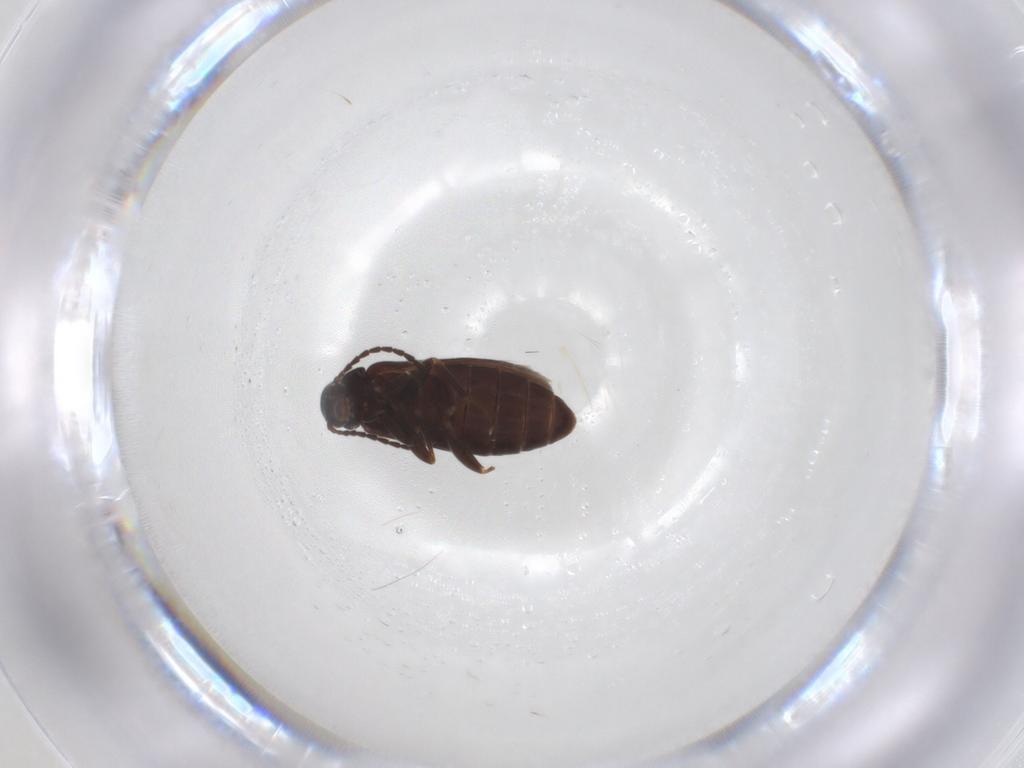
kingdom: Animalia
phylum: Arthropoda
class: Insecta
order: Coleoptera
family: Scraptiidae
